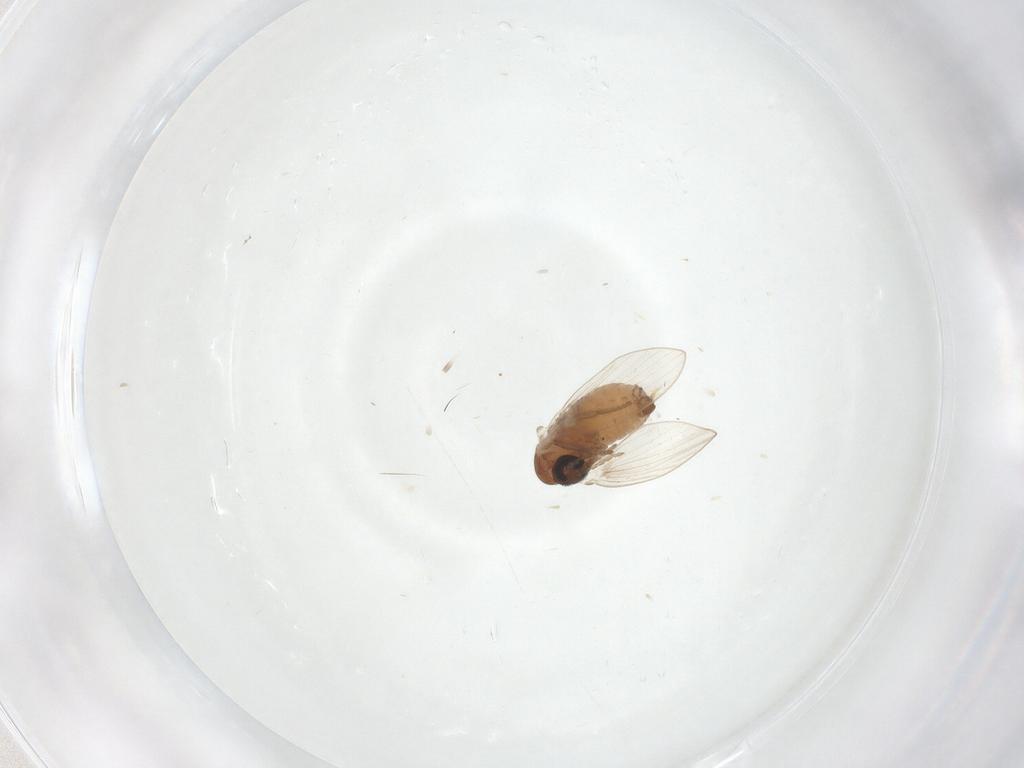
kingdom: Animalia
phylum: Arthropoda
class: Insecta
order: Diptera
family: Psychodidae
